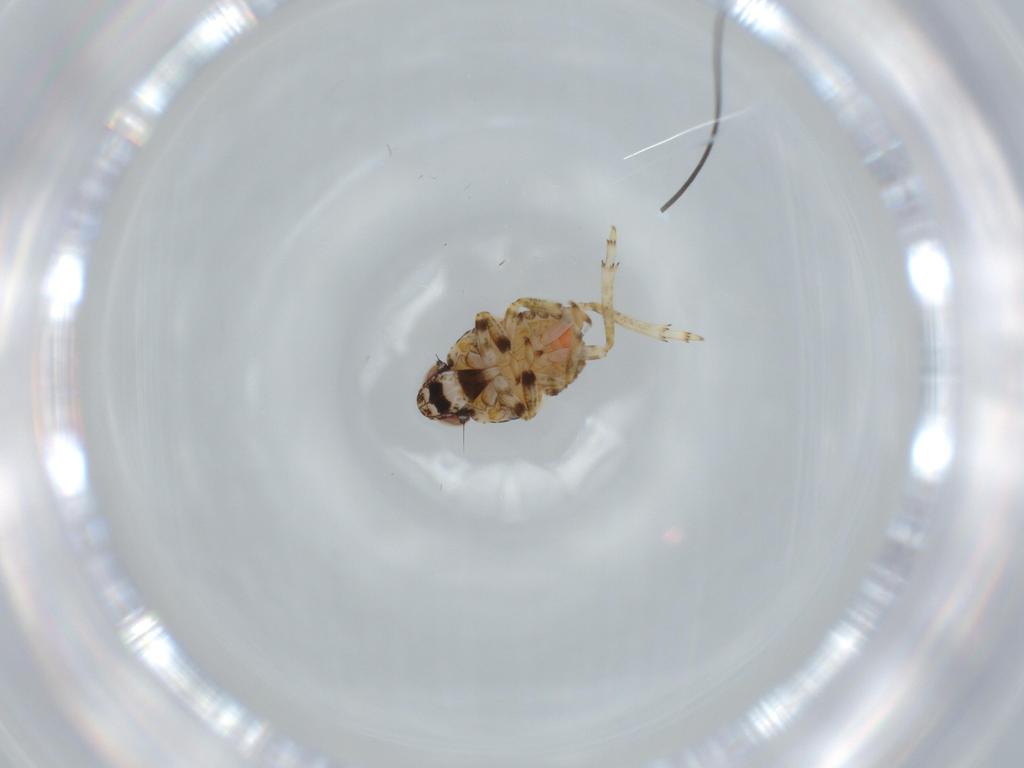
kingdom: Animalia
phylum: Arthropoda
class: Insecta
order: Hemiptera
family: Issidae
